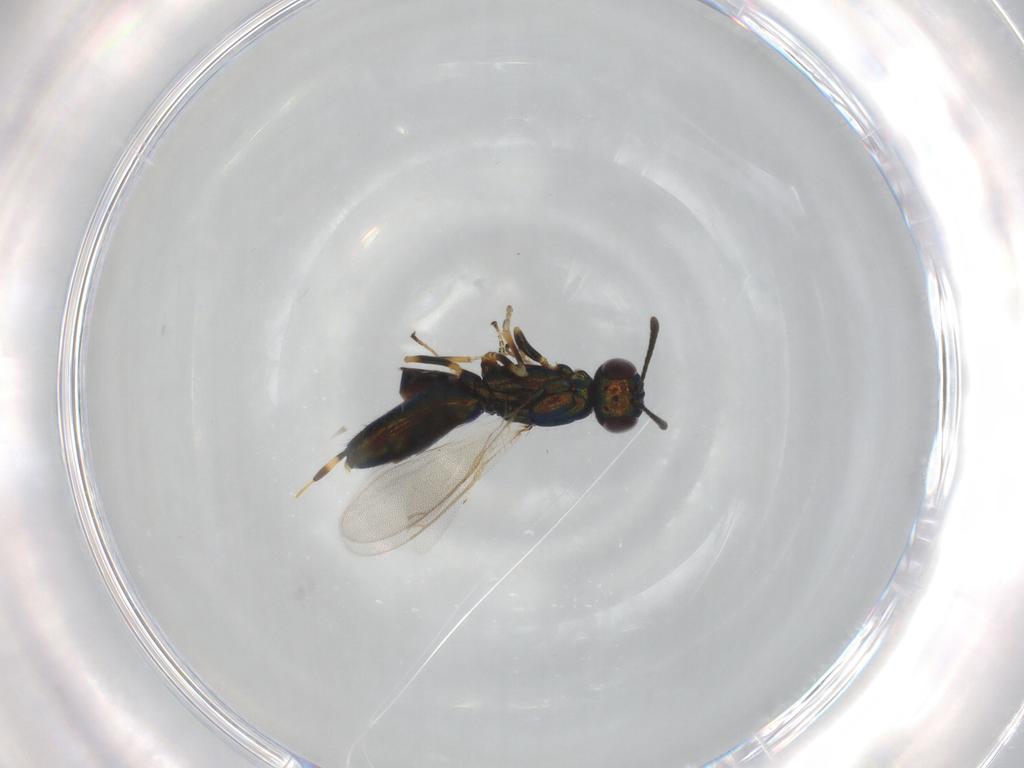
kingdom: Animalia
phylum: Arthropoda
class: Insecta
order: Hymenoptera
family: Eupelmidae
